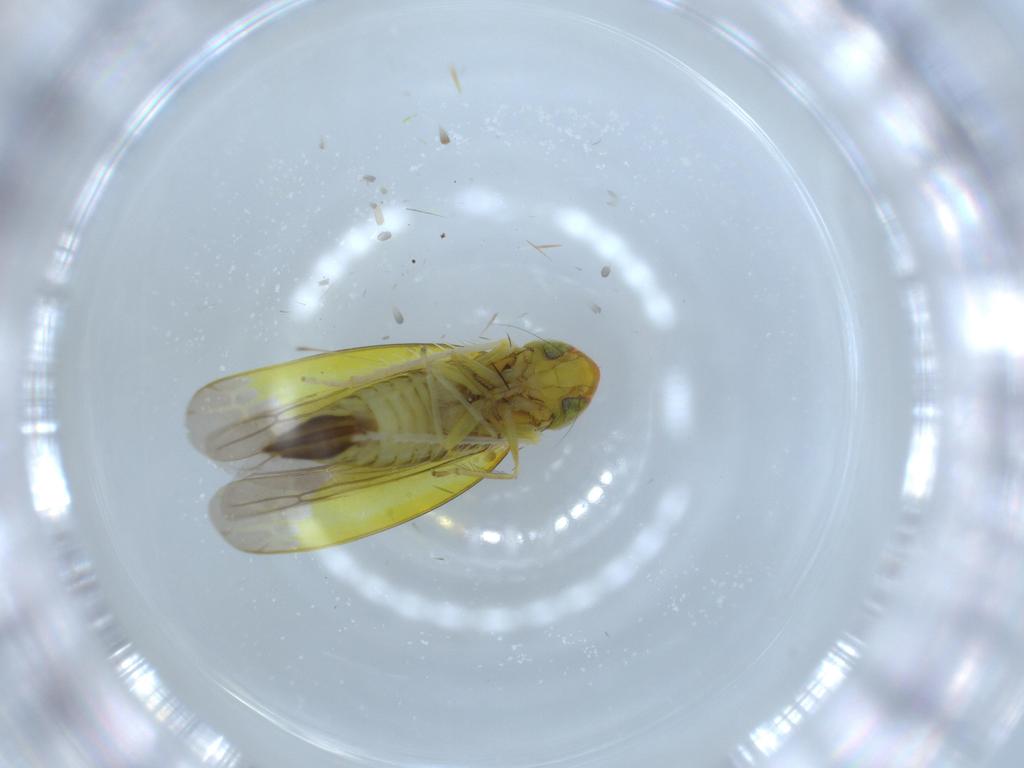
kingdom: Animalia
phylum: Arthropoda
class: Insecta
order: Hemiptera
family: Cicadellidae
